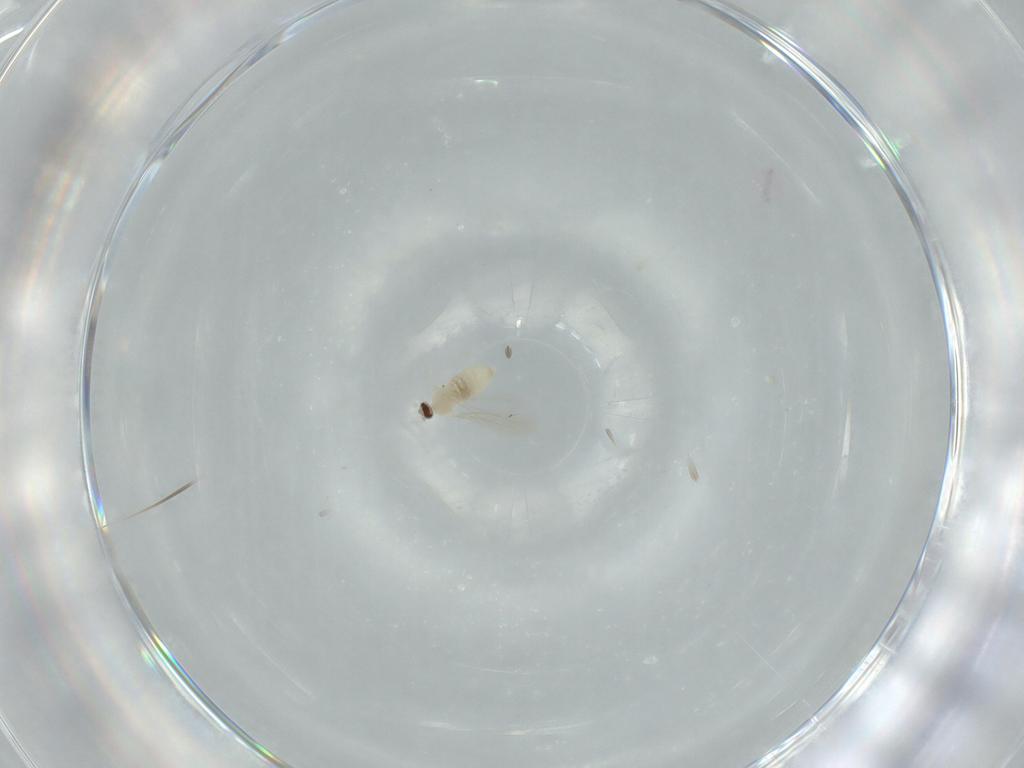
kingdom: Animalia
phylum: Arthropoda
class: Insecta
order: Diptera
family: Cecidomyiidae
